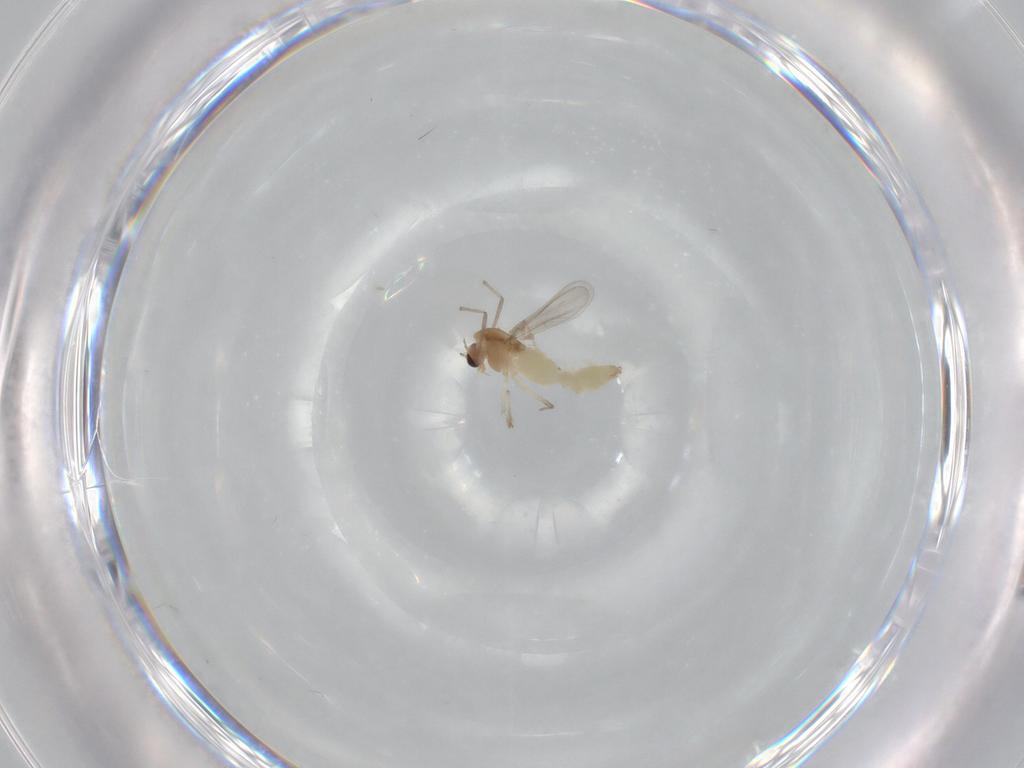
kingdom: Animalia
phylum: Arthropoda
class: Insecta
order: Diptera
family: Chironomidae
